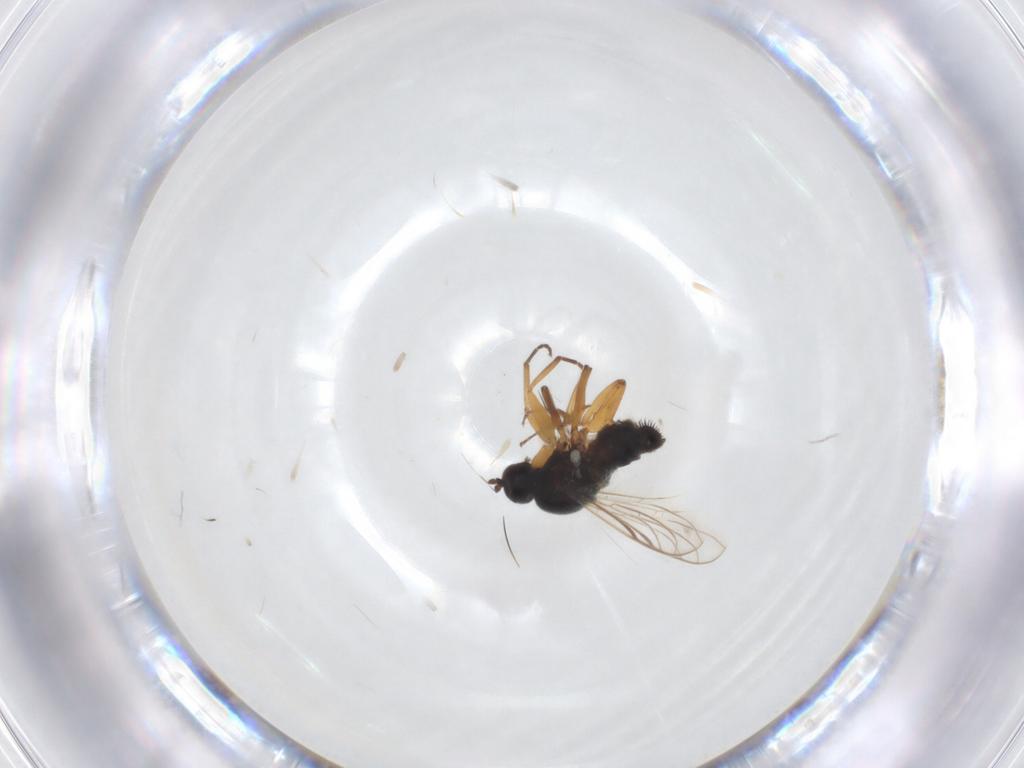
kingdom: Animalia
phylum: Arthropoda
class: Insecta
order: Diptera
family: Hybotidae
